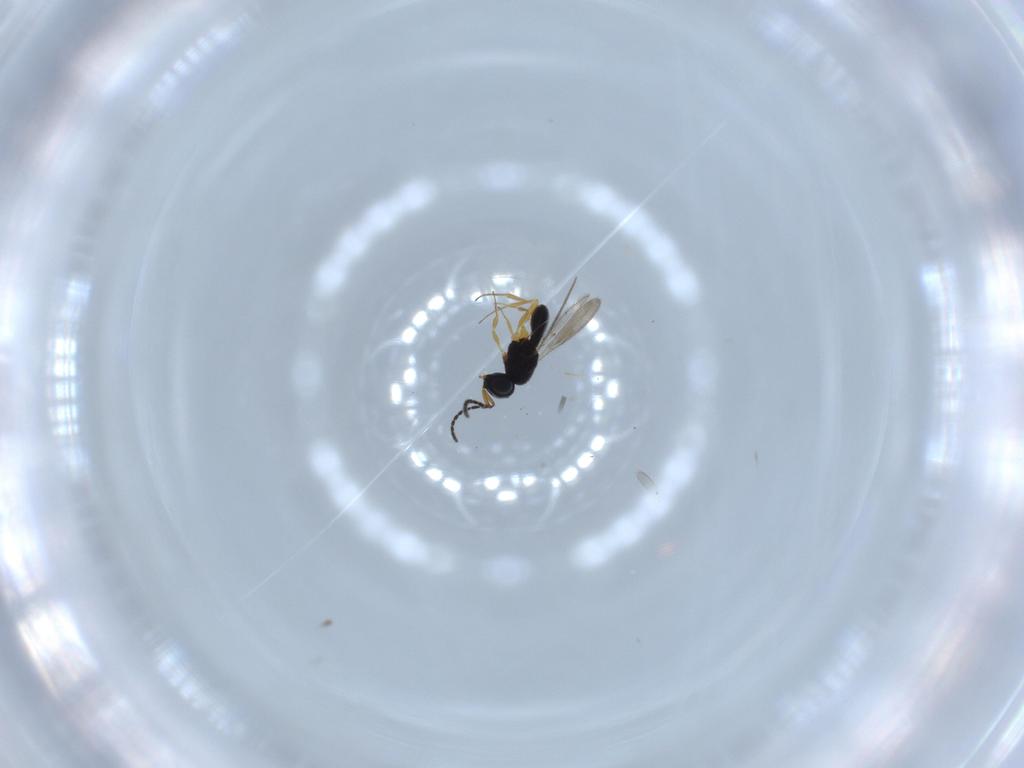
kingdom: Animalia
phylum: Arthropoda
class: Insecta
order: Hymenoptera
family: Scelionidae
